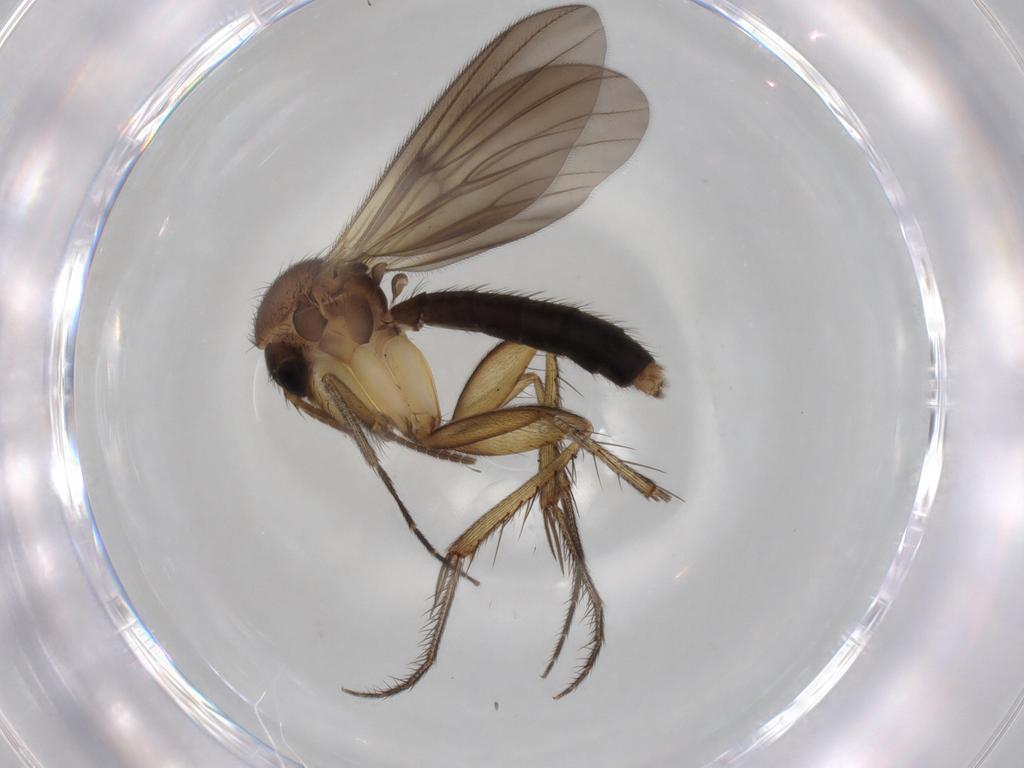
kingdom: Animalia
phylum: Arthropoda
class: Insecta
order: Diptera
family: Mycetophilidae
